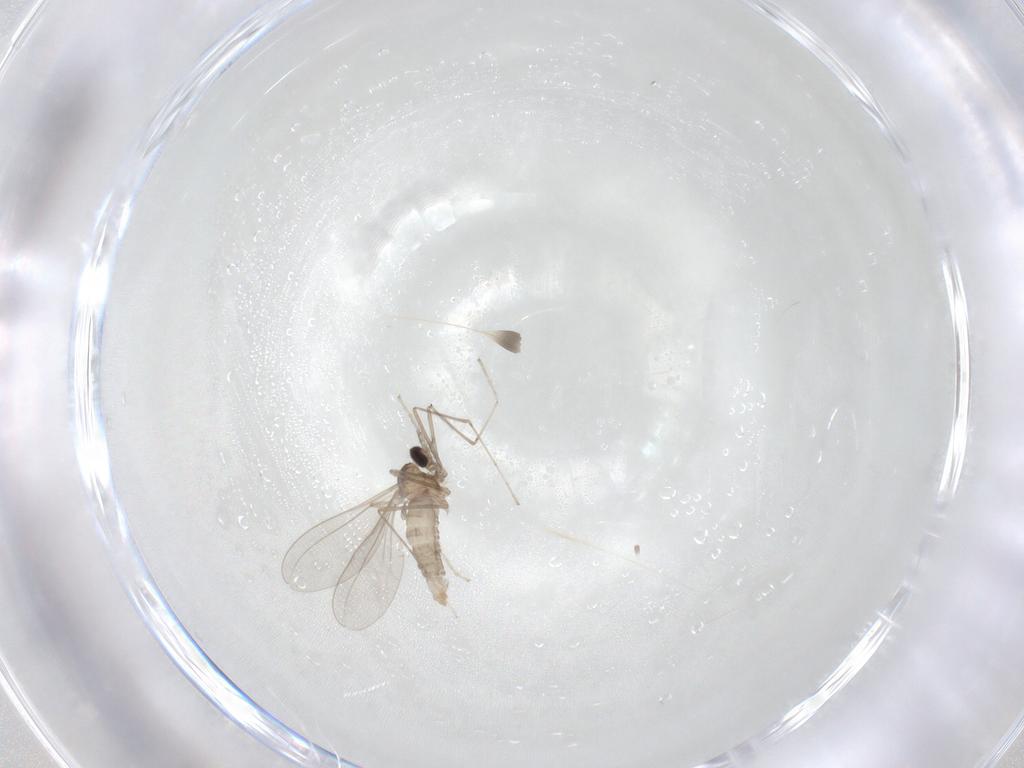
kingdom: Animalia
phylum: Arthropoda
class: Insecta
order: Diptera
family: Cecidomyiidae
